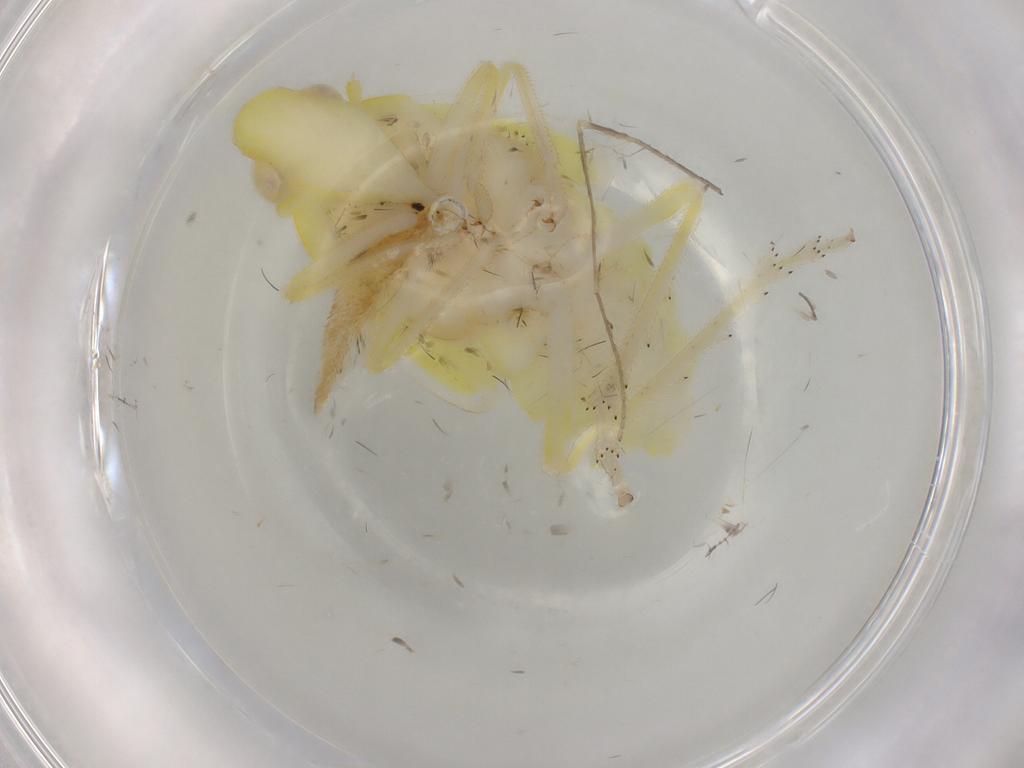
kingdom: Animalia
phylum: Arthropoda
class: Insecta
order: Hemiptera
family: Tropiduchidae
